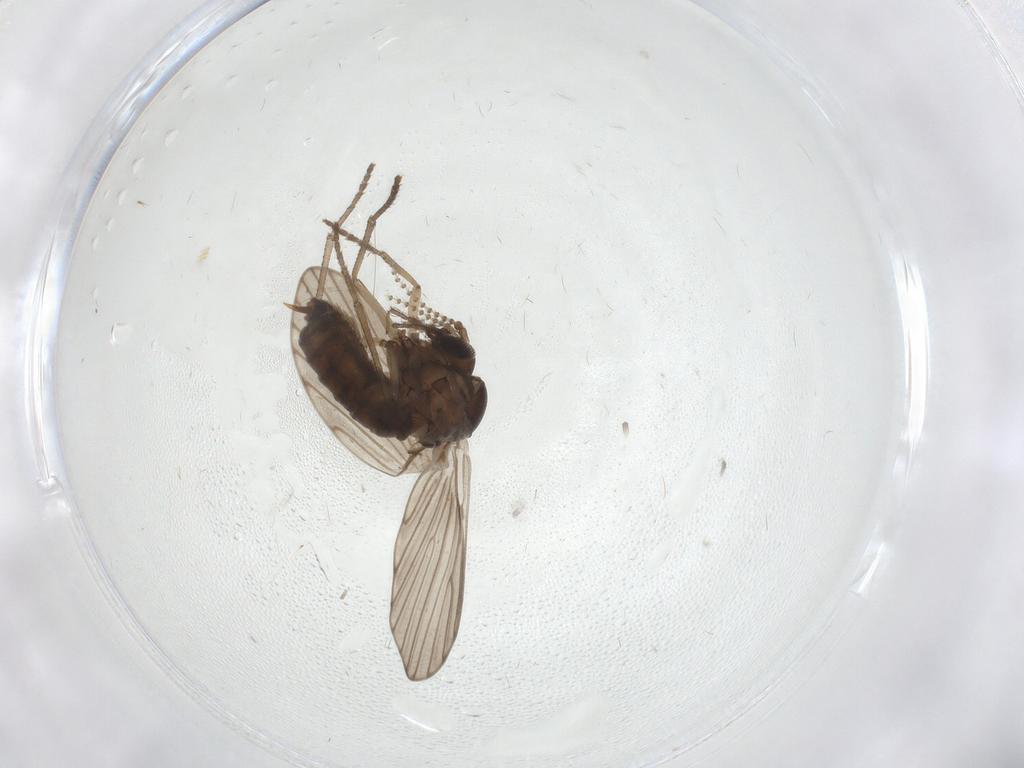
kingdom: Animalia
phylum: Arthropoda
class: Insecta
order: Diptera
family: Psychodidae
